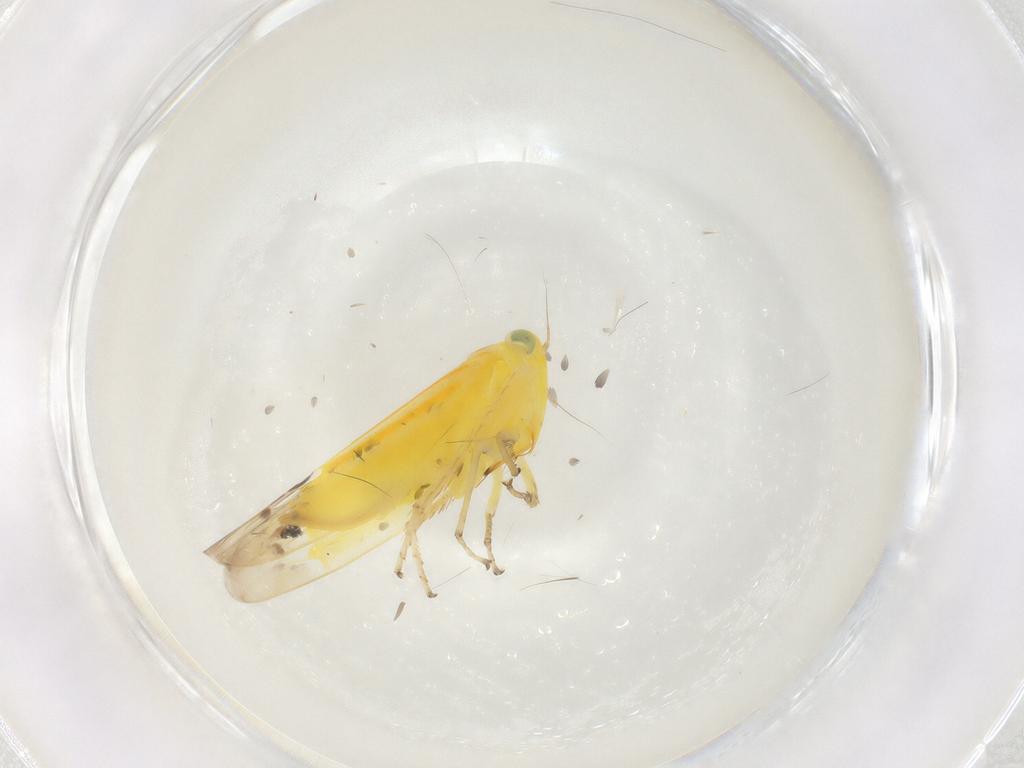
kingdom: Animalia
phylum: Arthropoda
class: Insecta
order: Hemiptera
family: Cicadellidae
